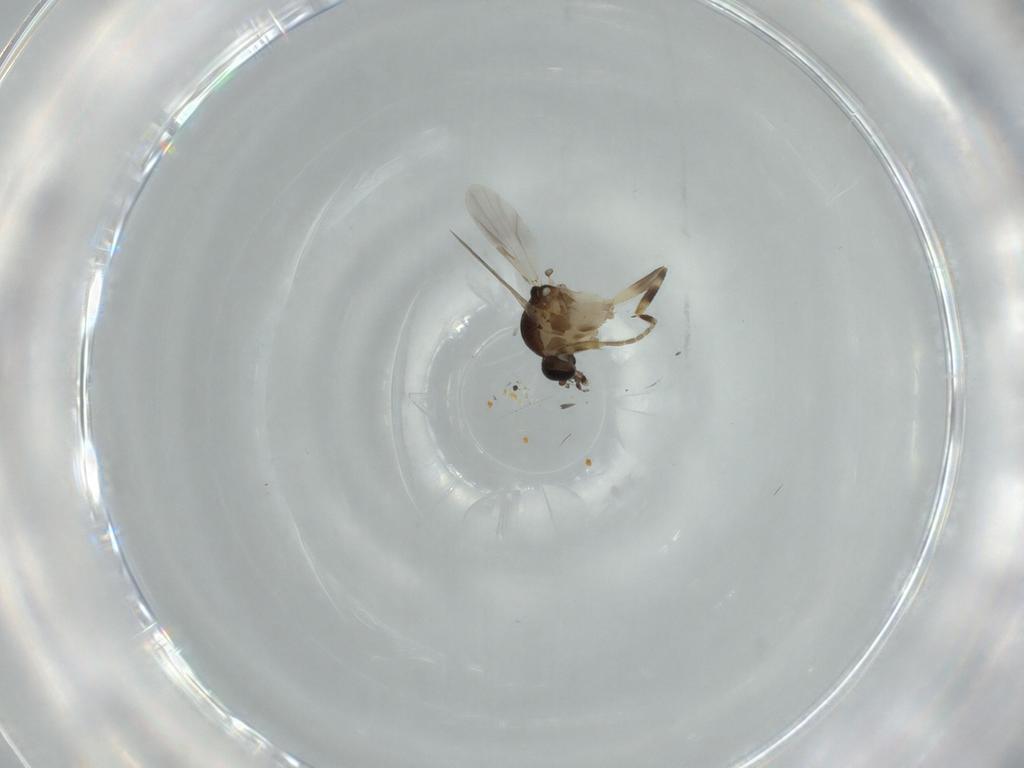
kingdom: Animalia
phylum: Arthropoda
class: Insecta
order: Diptera
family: Ceratopogonidae
